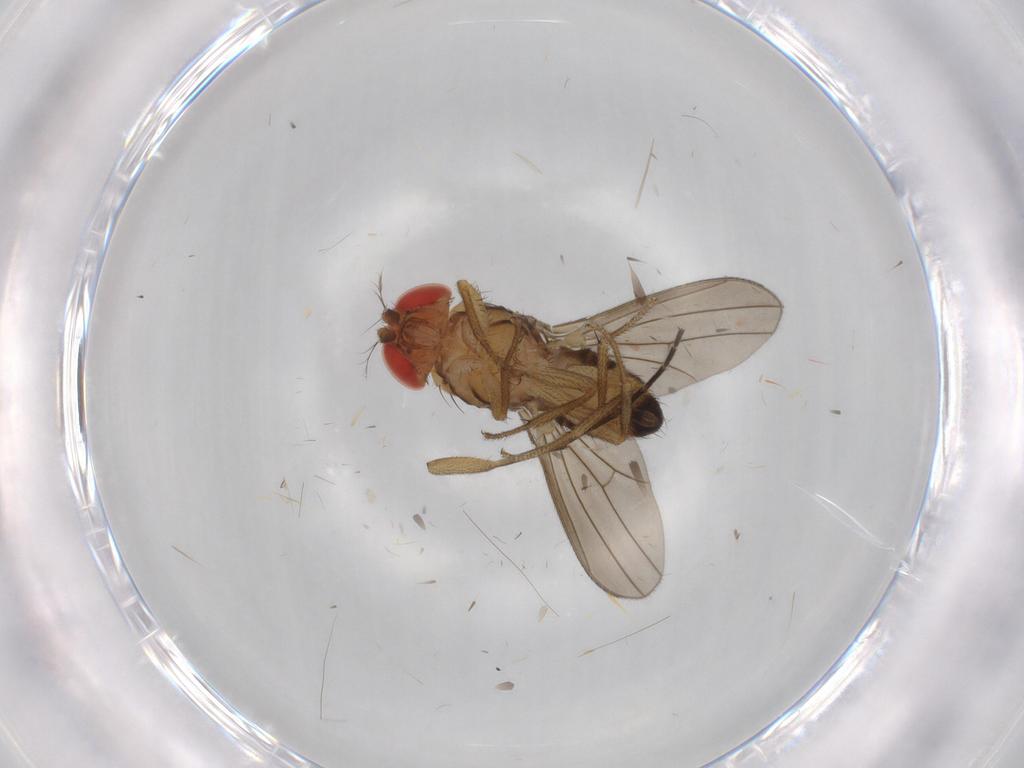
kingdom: Animalia
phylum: Arthropoda
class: Insecta
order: Diptera
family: Drosophilidae
